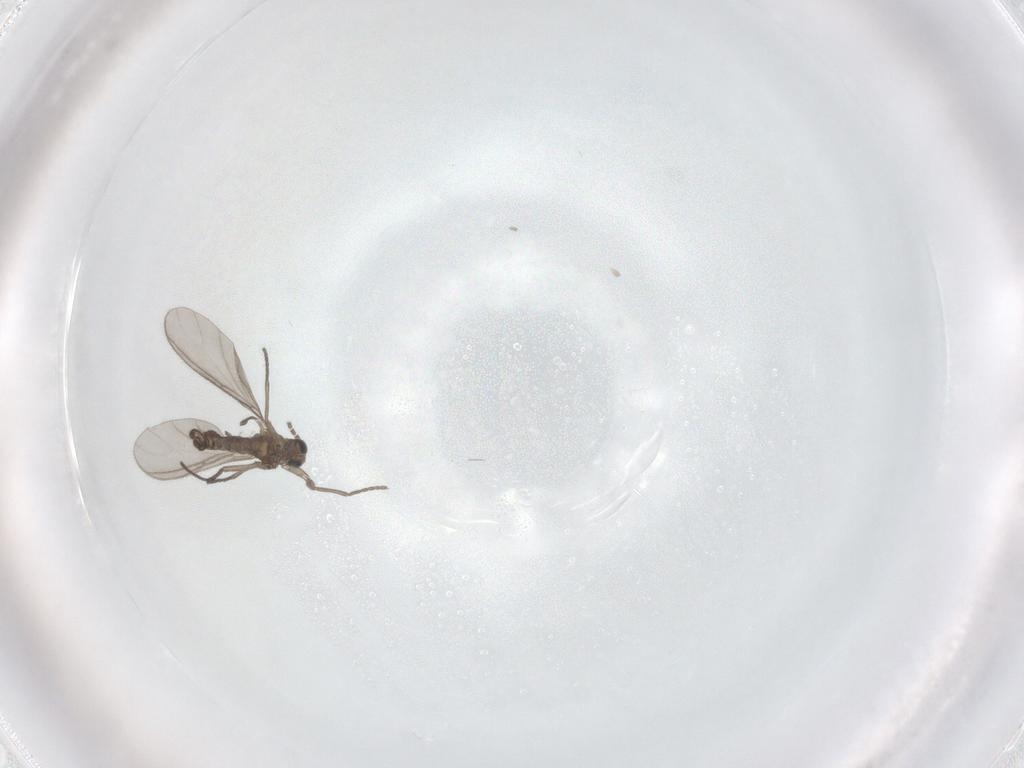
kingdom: Animalia
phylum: Arthropoda
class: Insecta
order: Diptera
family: Sciaridae
